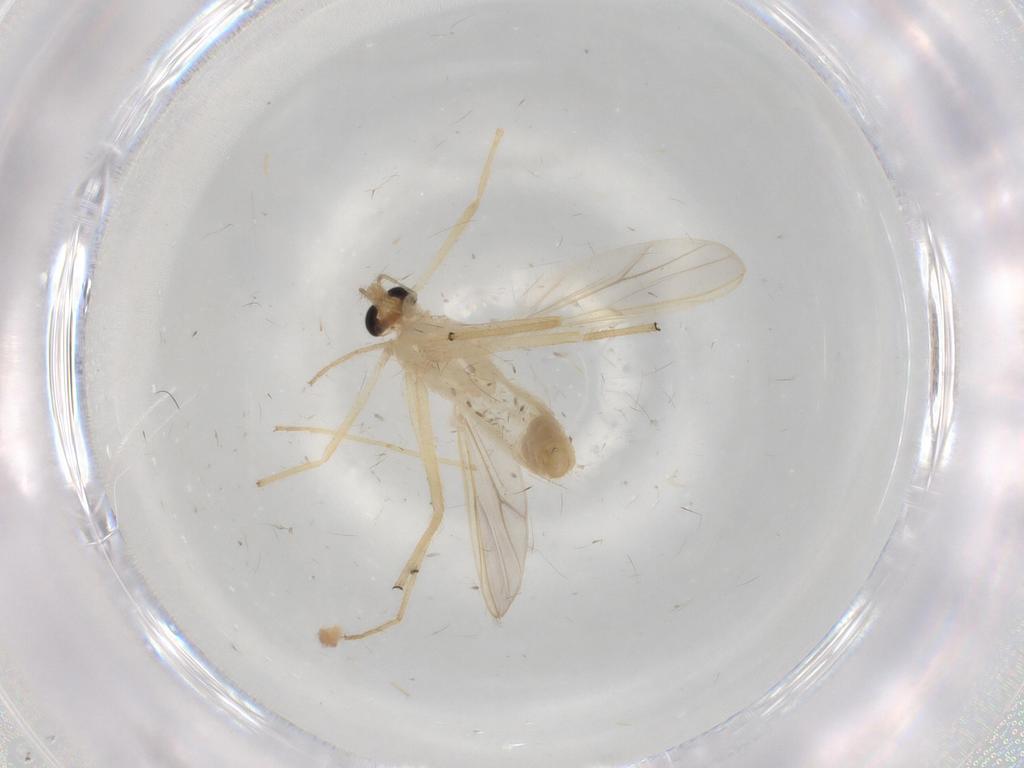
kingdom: Animalia
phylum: Arthropoda
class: Insecta
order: Diptera
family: Chironomidae
